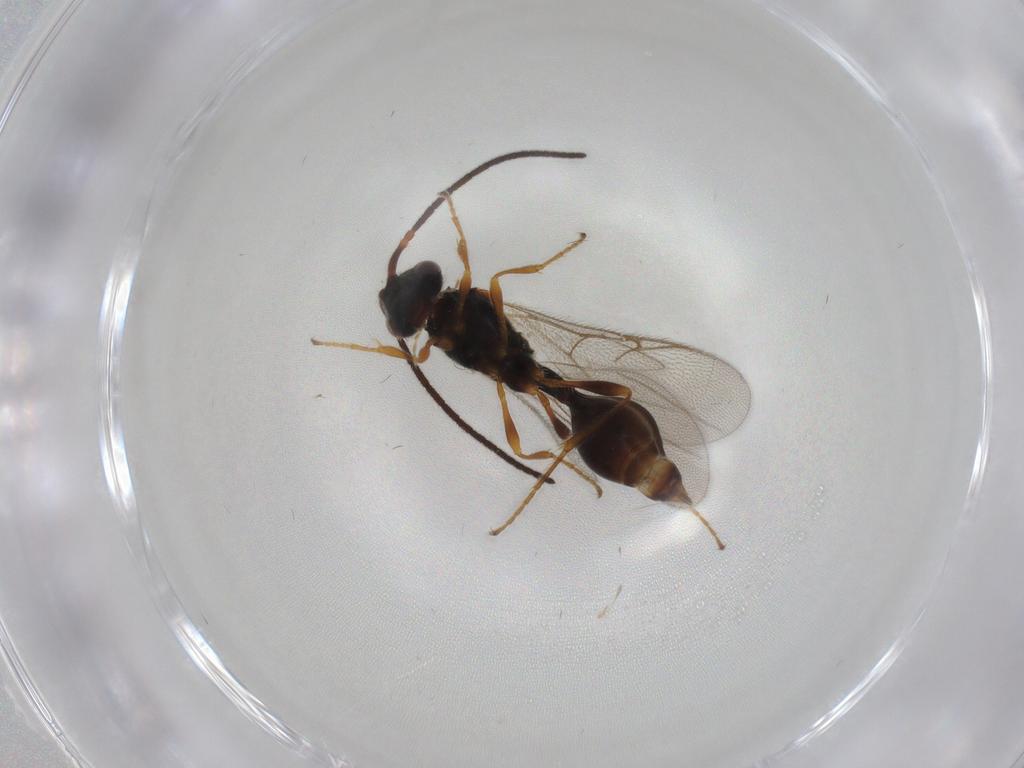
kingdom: Animalia
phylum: Arthropoda
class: Insecta
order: Hymenoptera
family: Diapriidae
